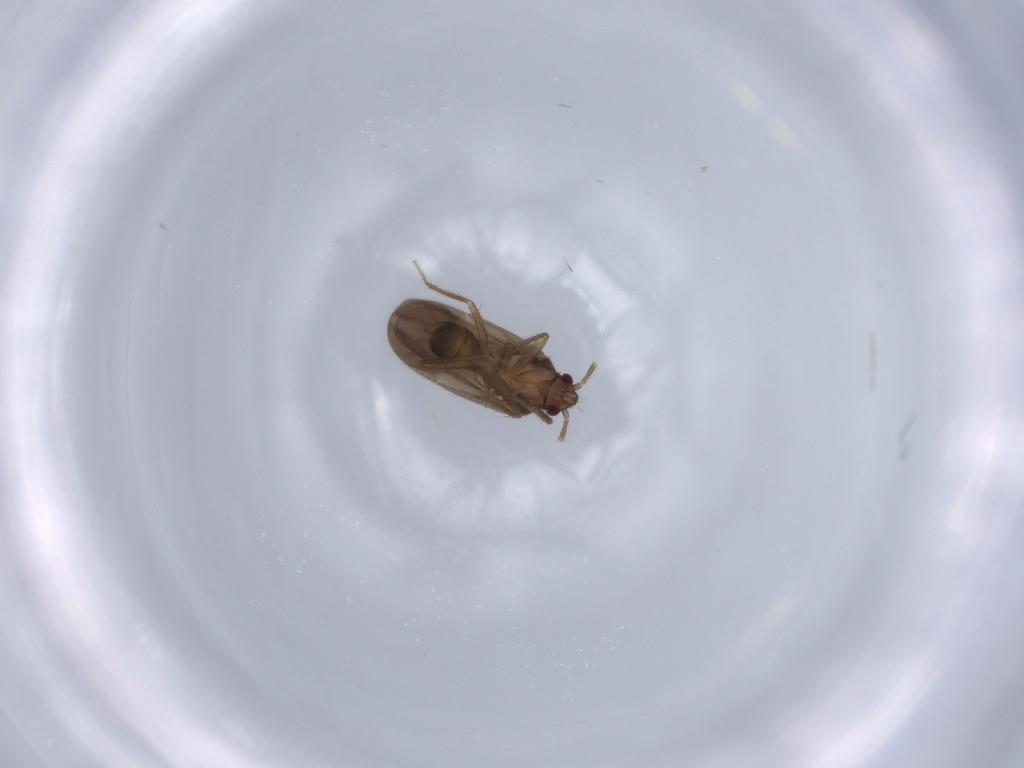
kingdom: Animalia
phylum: Arthropoda
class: Insecta
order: Hemiptera
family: Ceratocombidae
